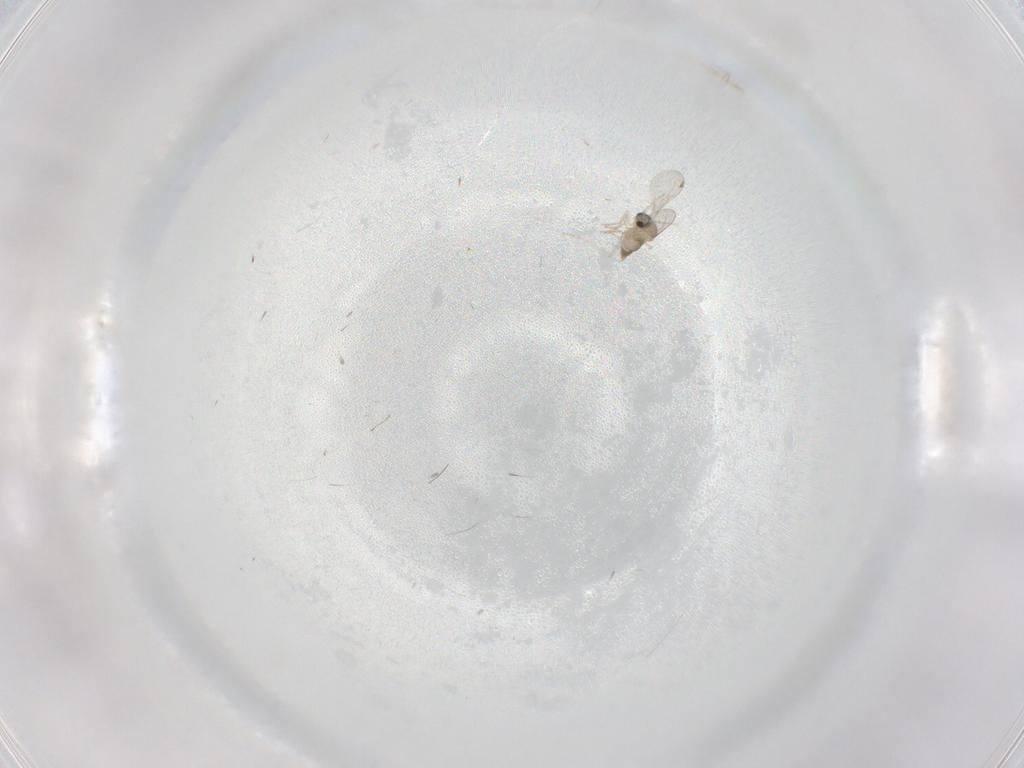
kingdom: Animalia
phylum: Arthropoda
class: Insecta
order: Diptera
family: Cecidomyiidae
